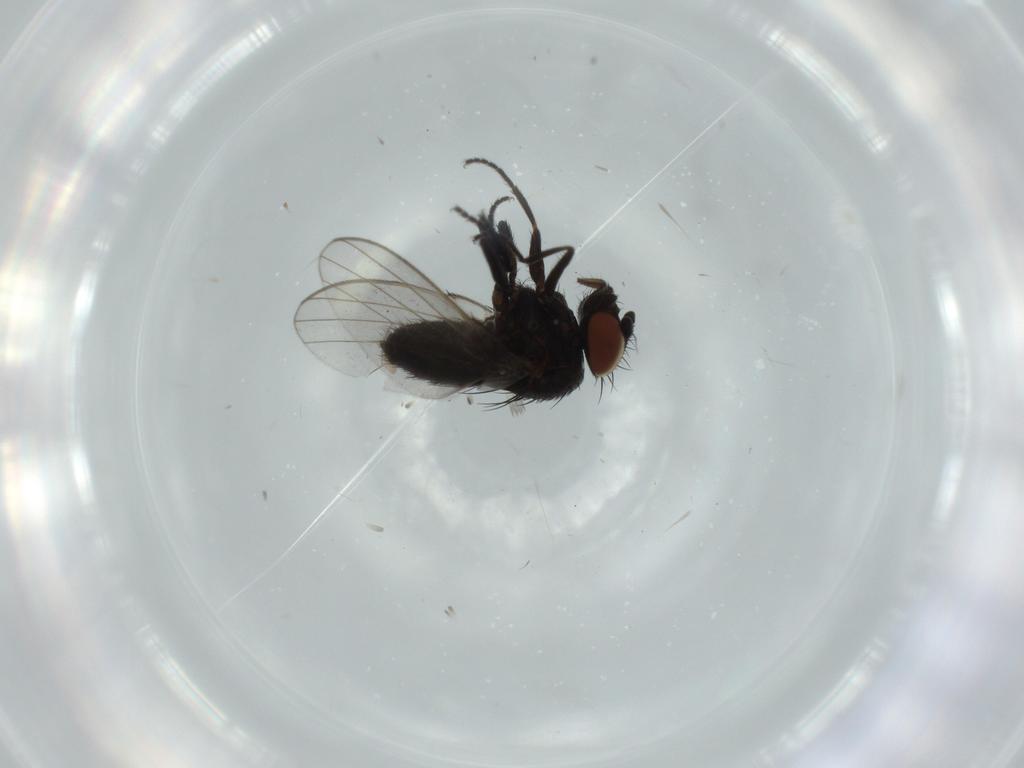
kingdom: Animalia
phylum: Arthropoda
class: Insecta
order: Diptera
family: Milichiidae
